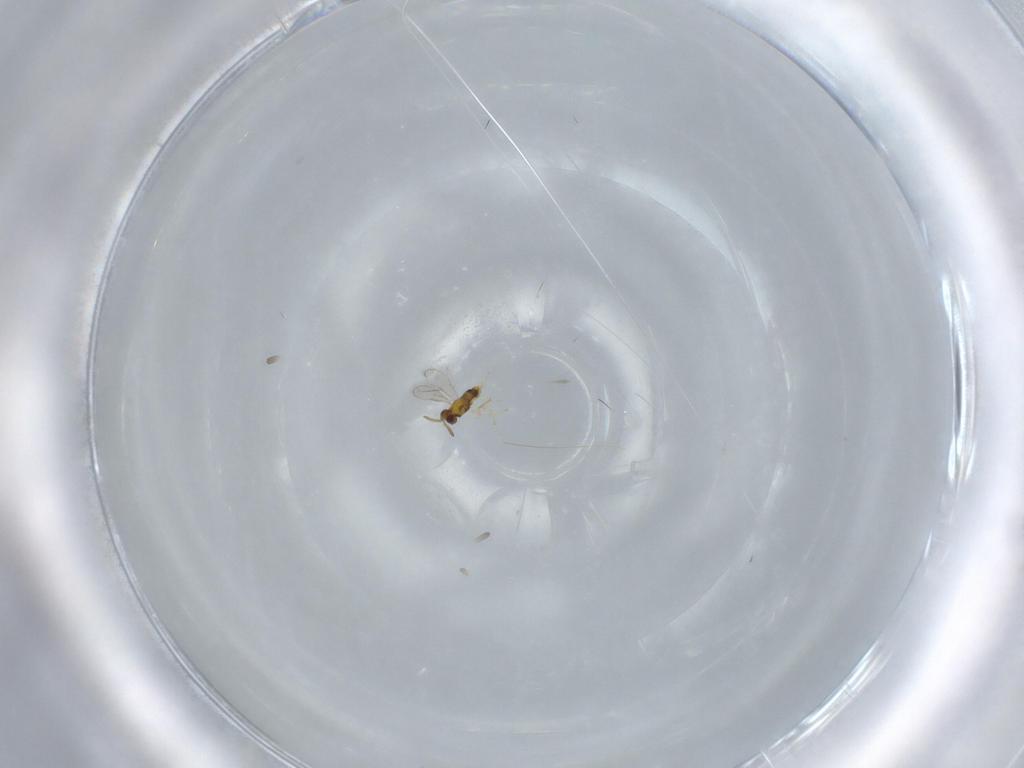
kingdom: Animalia
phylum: Arthropoda
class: Insecta
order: Hymenoptera
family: Aphelinidae
